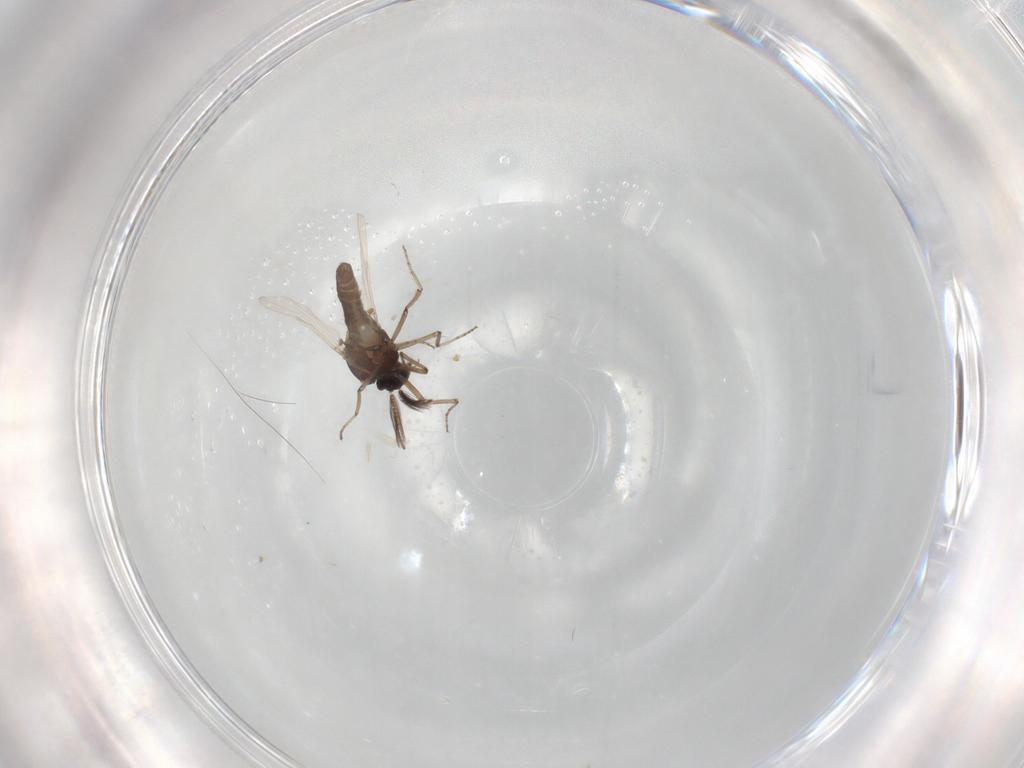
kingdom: Animalia
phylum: Arthropoda
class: Insecta
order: Diptera
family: Ceratopogonidae
